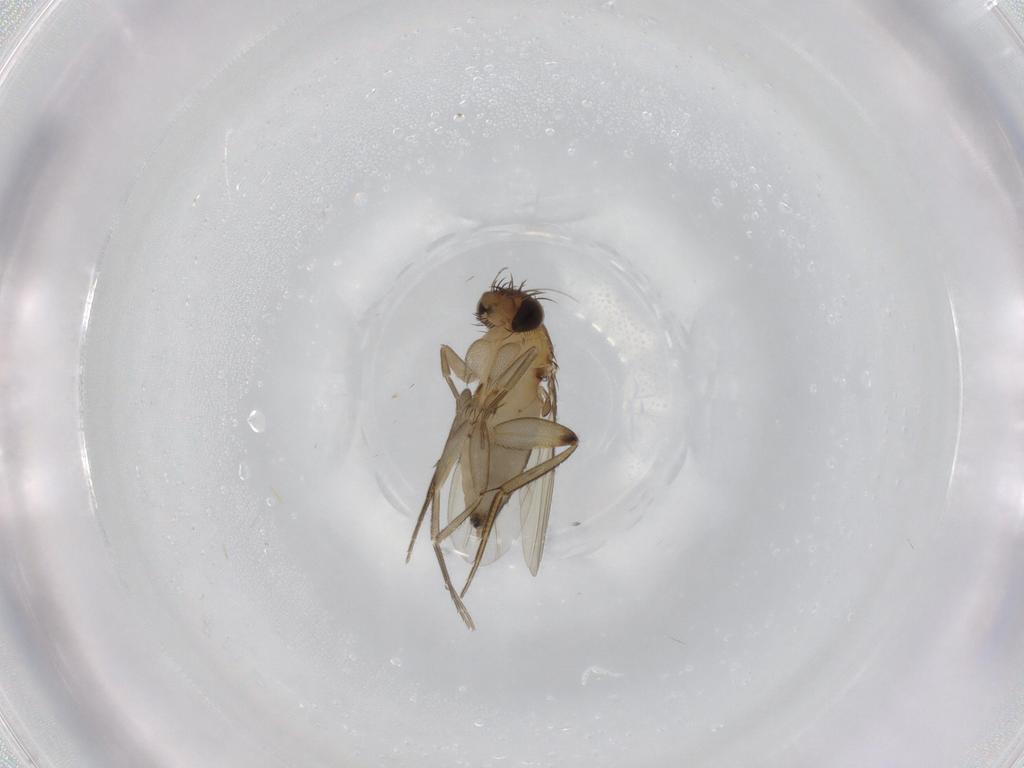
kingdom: Animalia
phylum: Arthropoda
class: Insecta
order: Diptera
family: Phoridae
